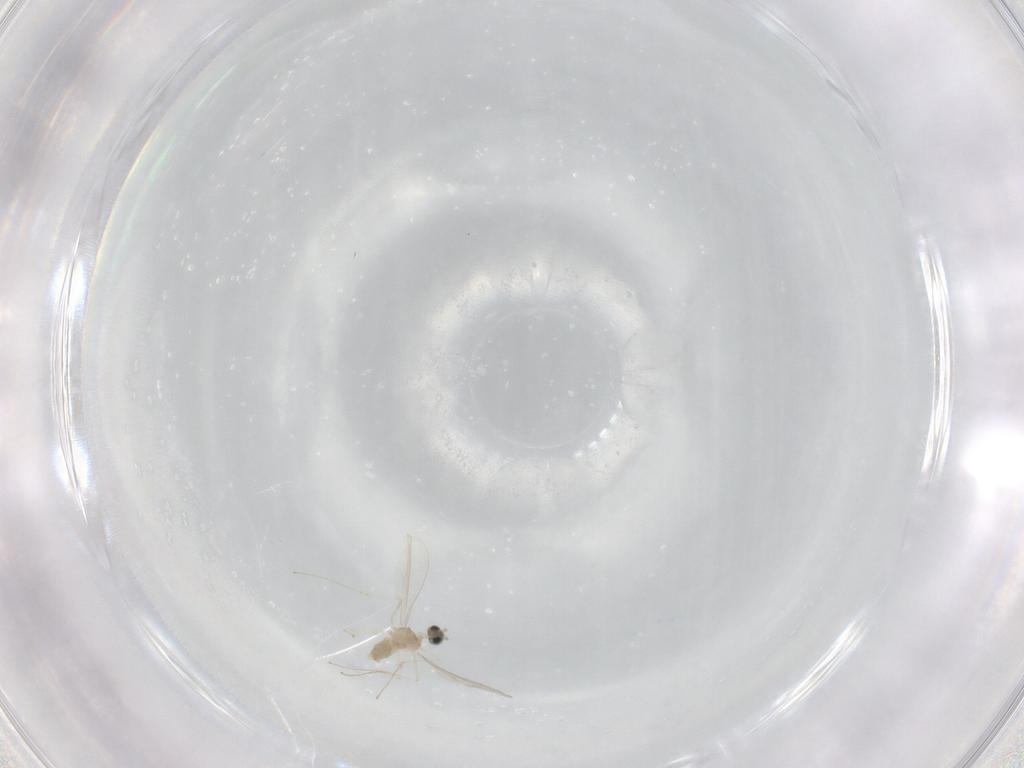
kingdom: Animalia
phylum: Arthropoda
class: Insecta
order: Diptera
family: Cecidomyiidae
